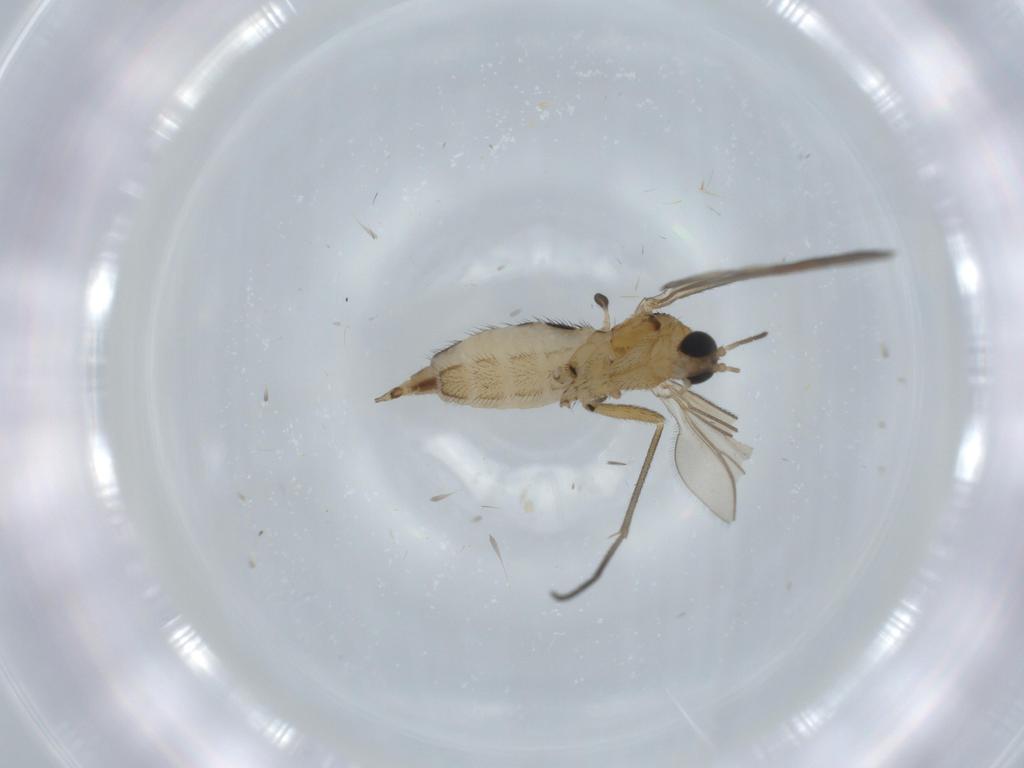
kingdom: Animalia
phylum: Arthropoda
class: Insecta
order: Diptera
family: Sciaridae
